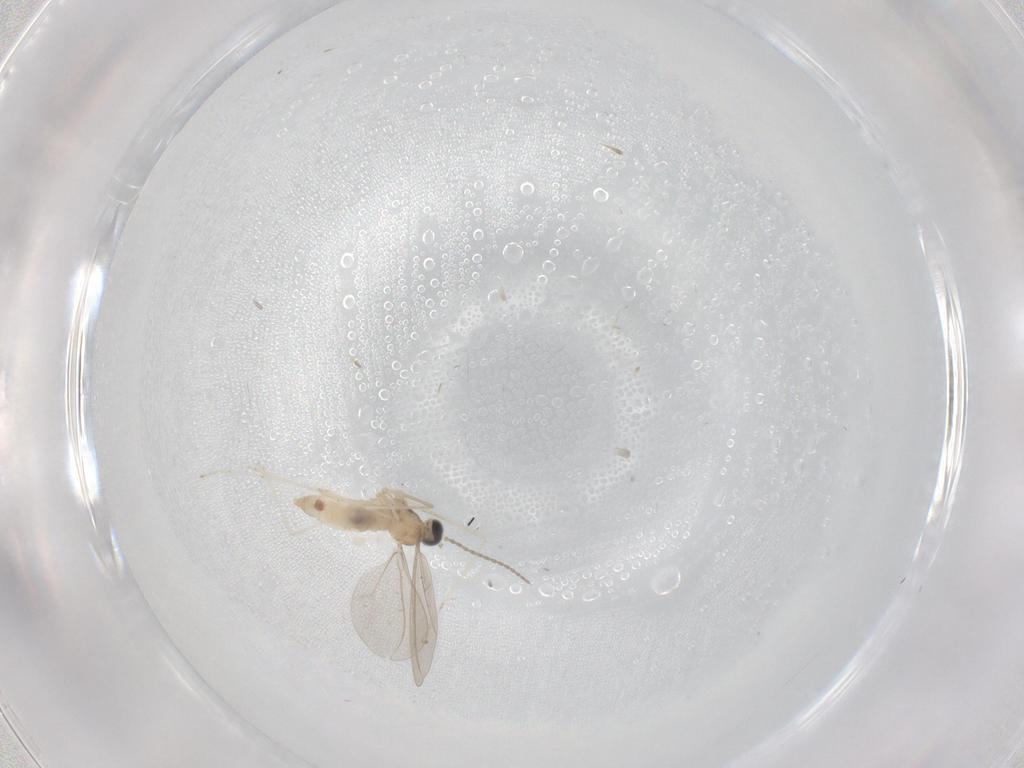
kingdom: Animalia
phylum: Arthropoda
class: Insecta
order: Diptera
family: Cecidomyiidae
